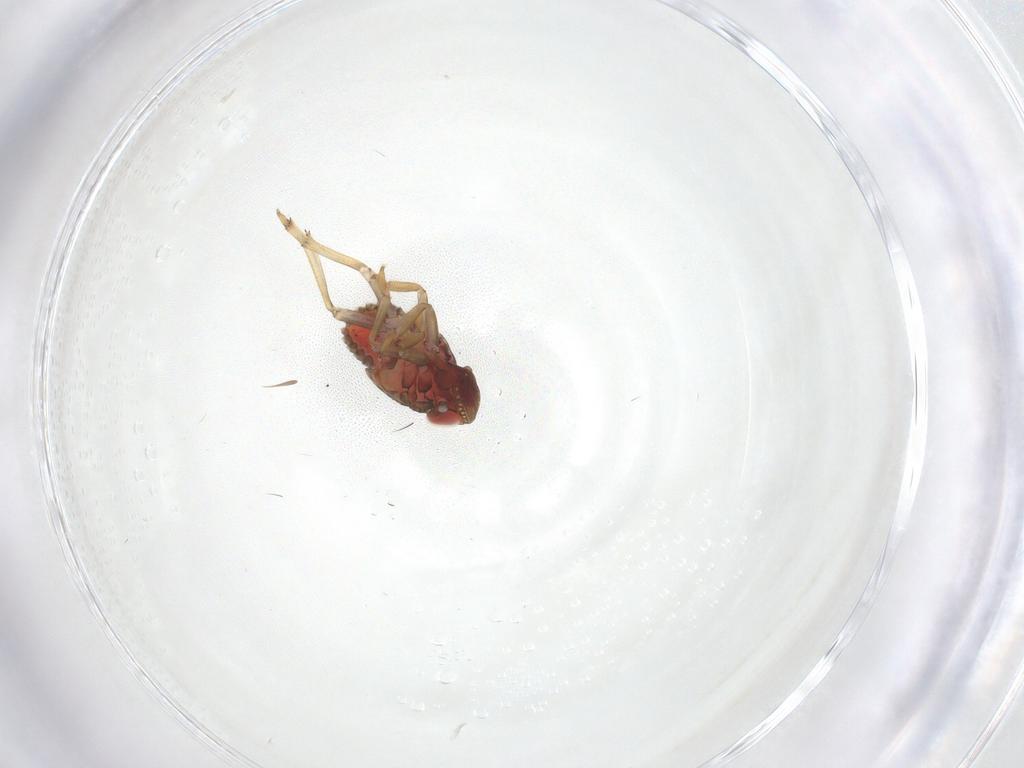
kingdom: Animalia
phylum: Arthropoda
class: Insecta
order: Hemiptera
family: Issidae
